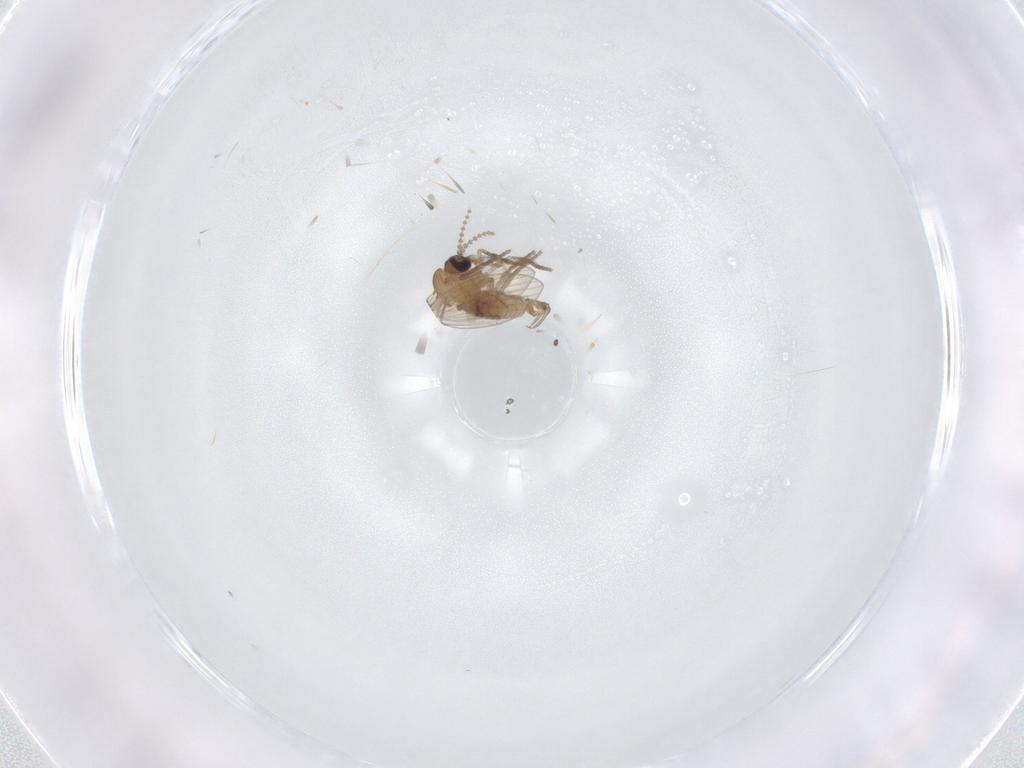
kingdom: Animalia
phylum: Arthropoda
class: Insecta
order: Diptera
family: Psychodidae
